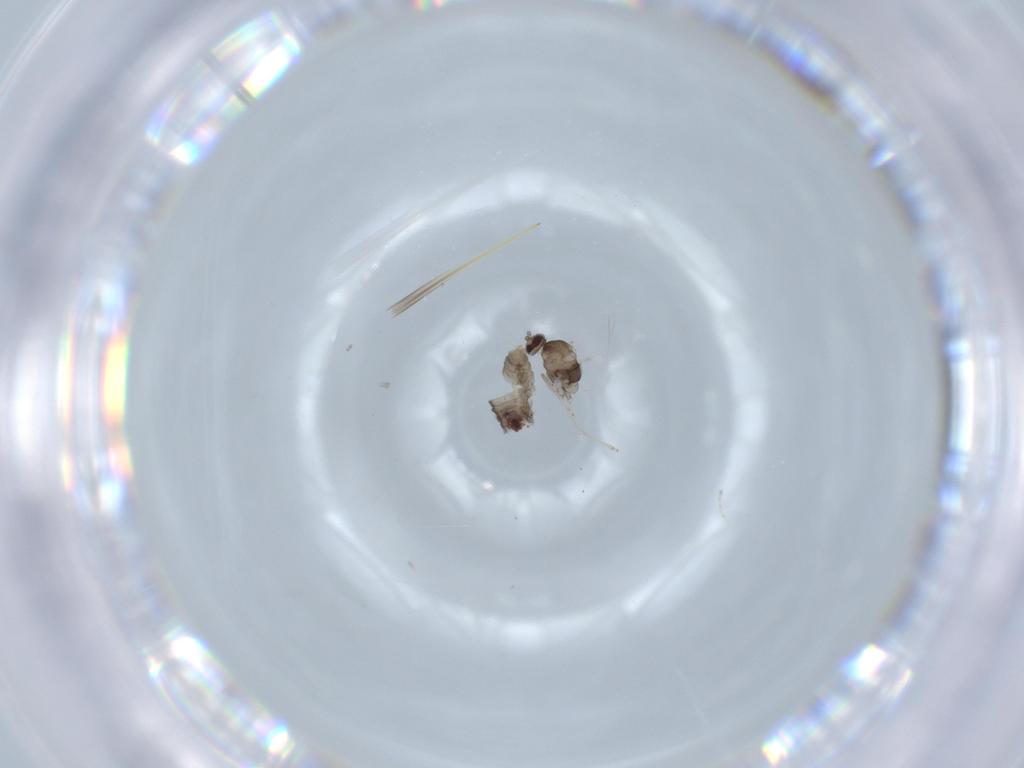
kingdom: Animalia
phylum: Arthropoda
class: Insecta
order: Diptera
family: Cecidomyiidae
